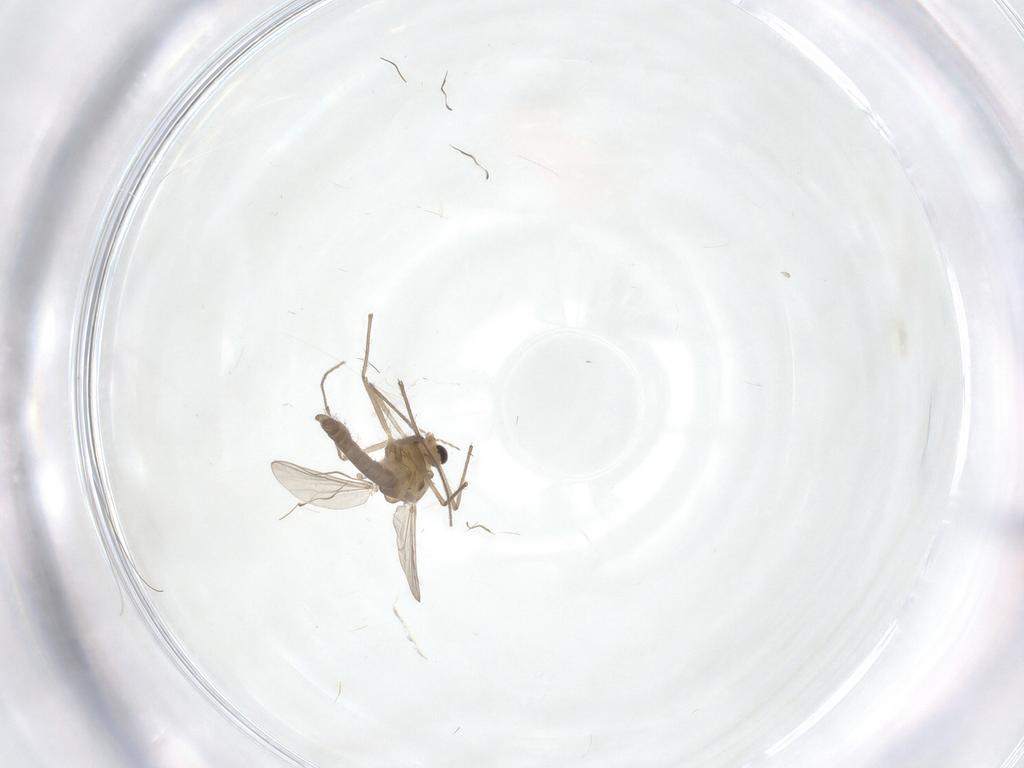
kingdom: Animalia
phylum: Arthropoda
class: Insecta
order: Diptera
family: Chironomidae
